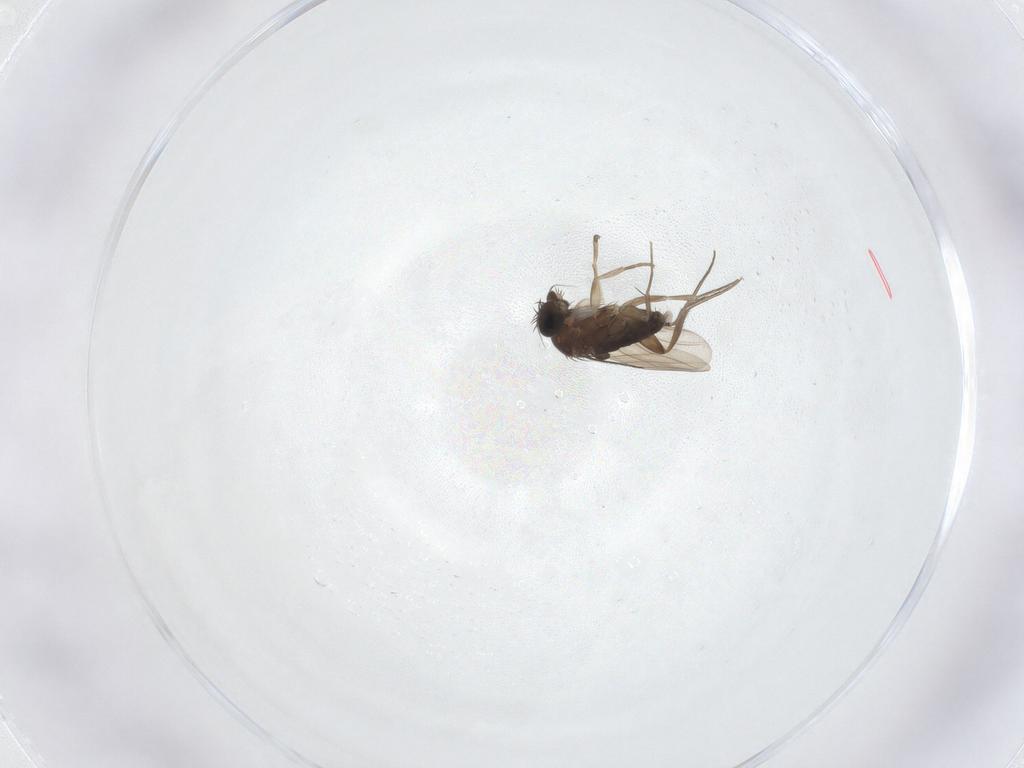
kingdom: Animalia
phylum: Arthropoda
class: Insecta
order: Diptera
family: Phoridae
